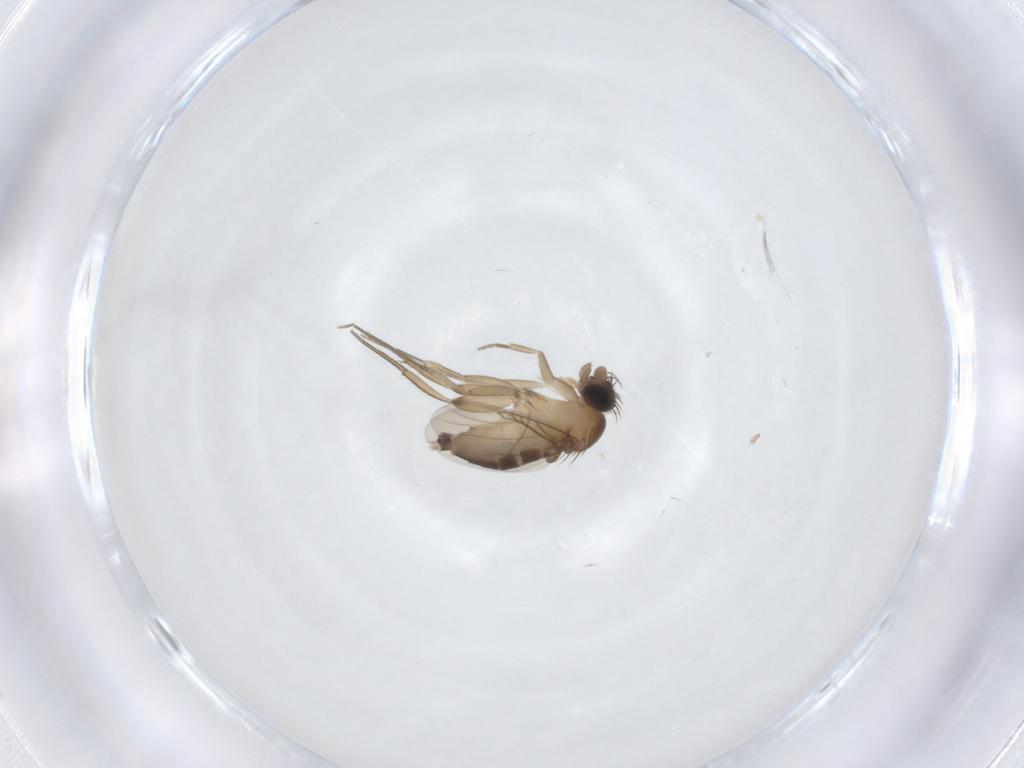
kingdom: Animalia
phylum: Arthropoda
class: Insecta
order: Diptera
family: Phoridae
